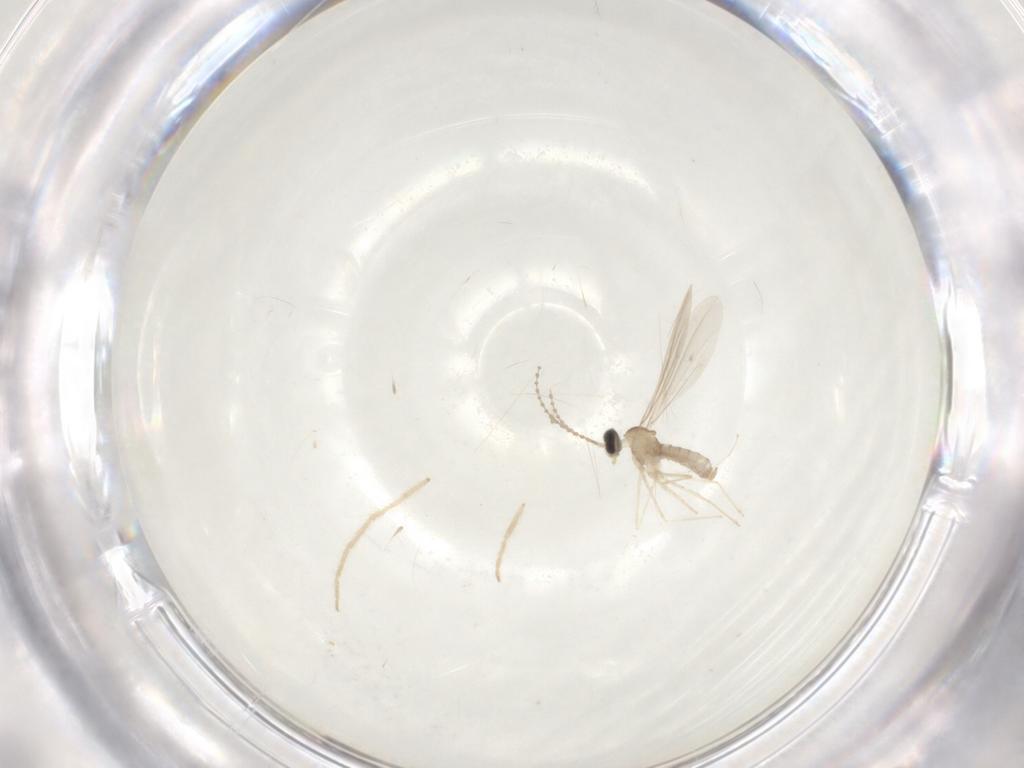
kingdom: Animalia
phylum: Arthropoda
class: Insecta
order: Diptera
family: Cecidomyiidae
